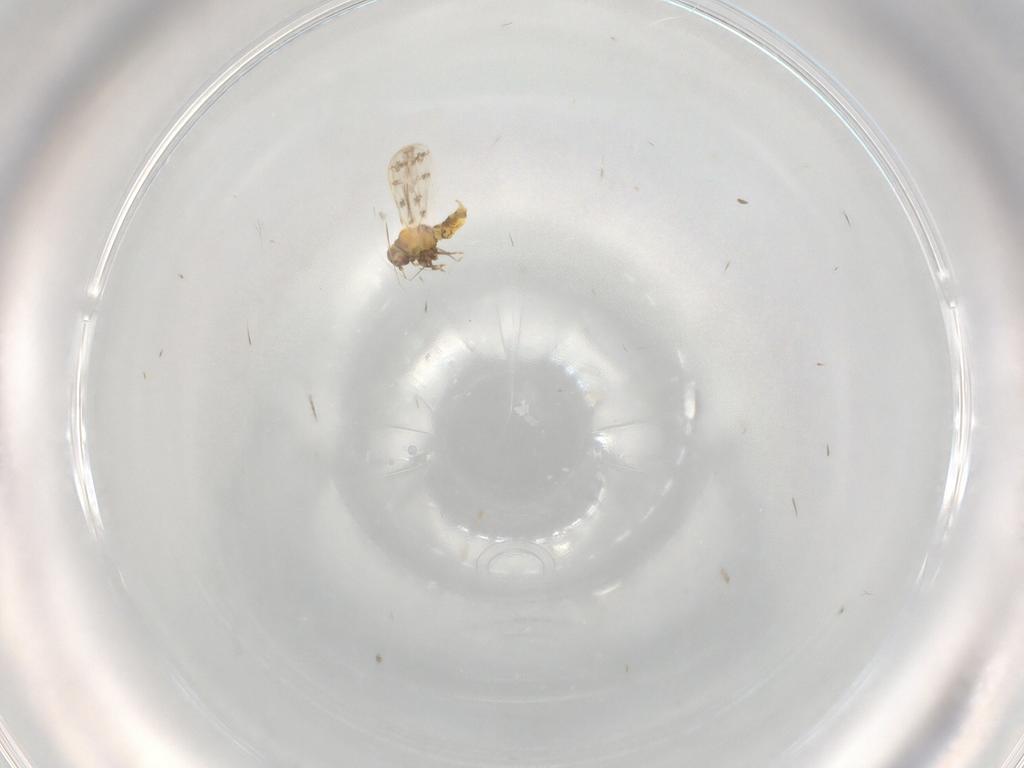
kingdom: Animalia
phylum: Arthropoda
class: Insecta
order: Hemiptera
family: Aleyrodidae
